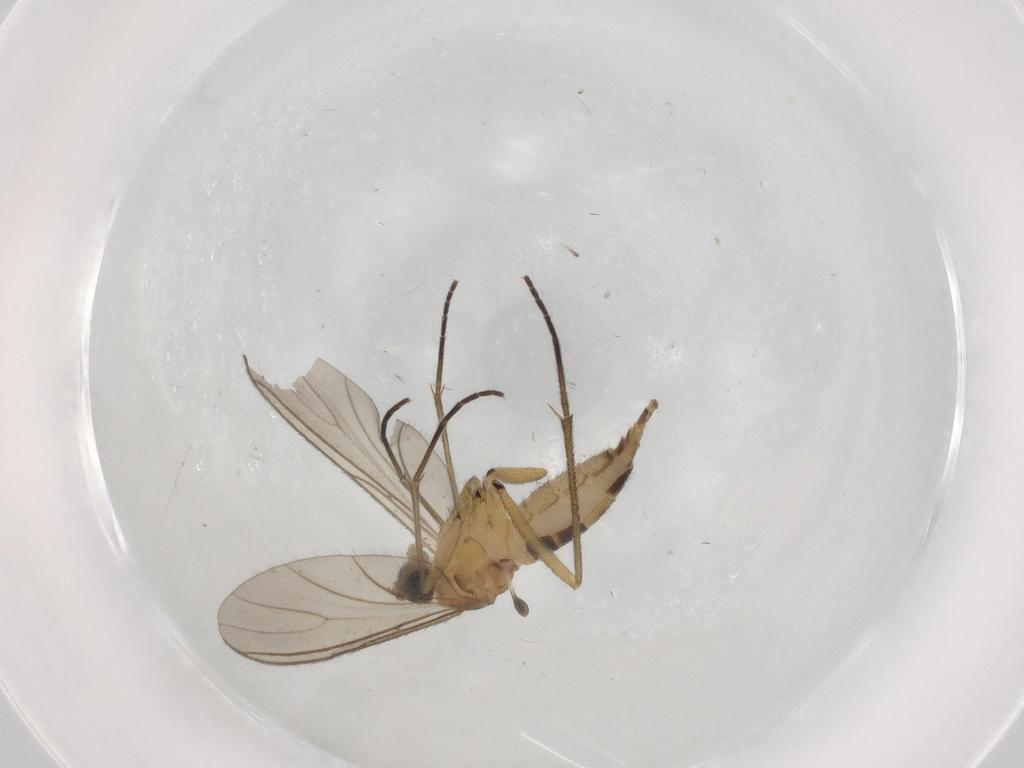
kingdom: Animalia
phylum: Arthropoda
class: Insecta
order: Diptera
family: Sciaridae
